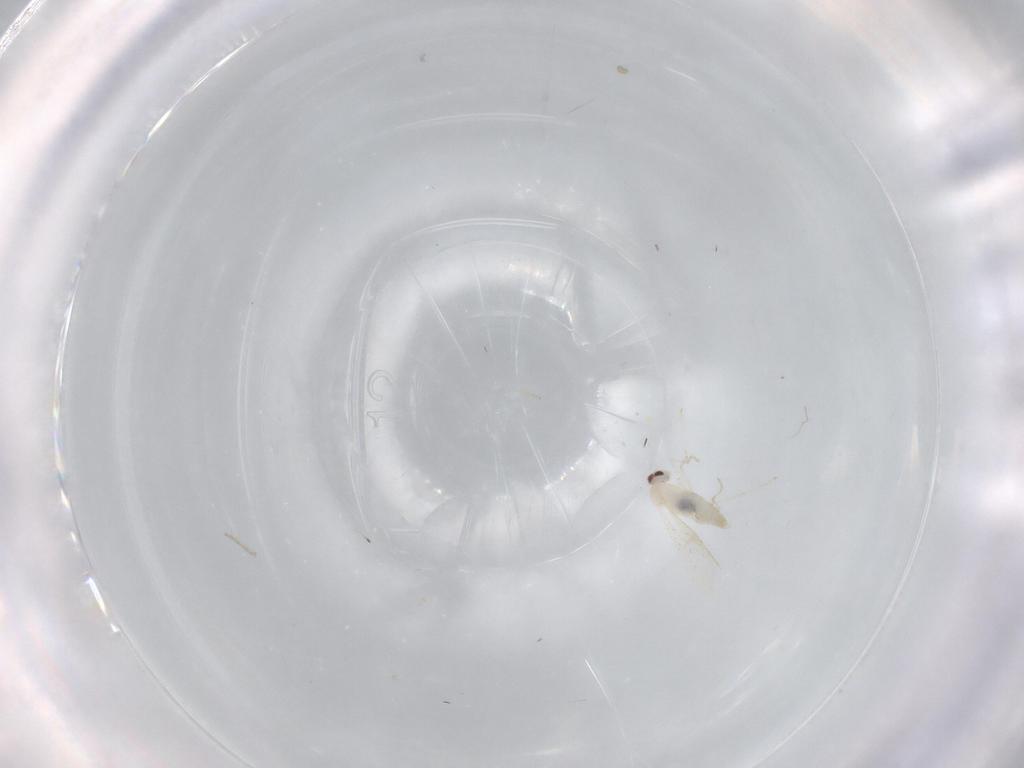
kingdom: Animalia
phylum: Arthropoda
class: Insecta
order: Diptera
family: Cecidomyiidae
